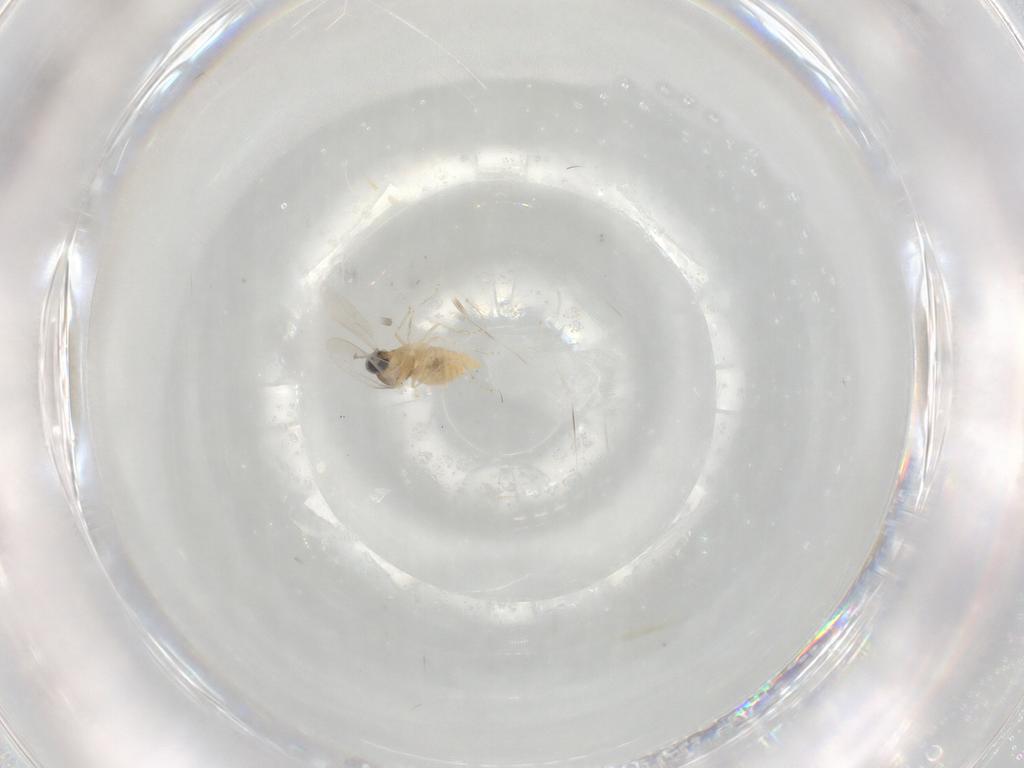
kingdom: Animalia
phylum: Arthropoda
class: Insecta
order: Diptera
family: Cecidomyiidae
